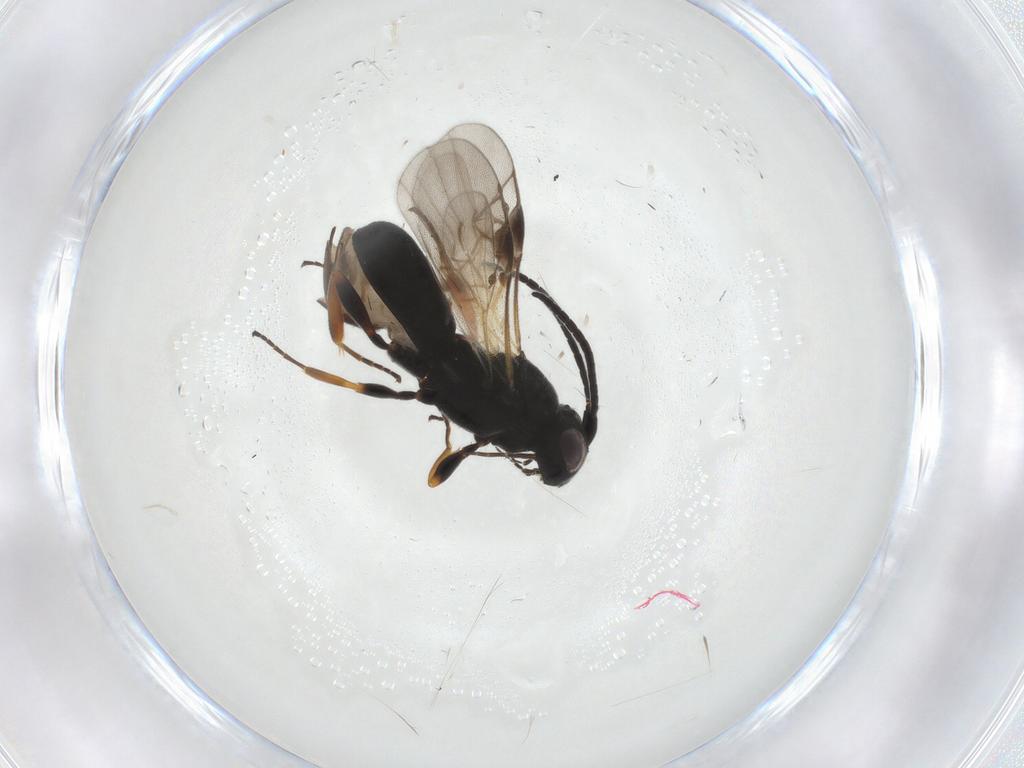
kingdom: Animalia
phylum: Arthropoda
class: Insecta
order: Hymenoptera
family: Braconidae
